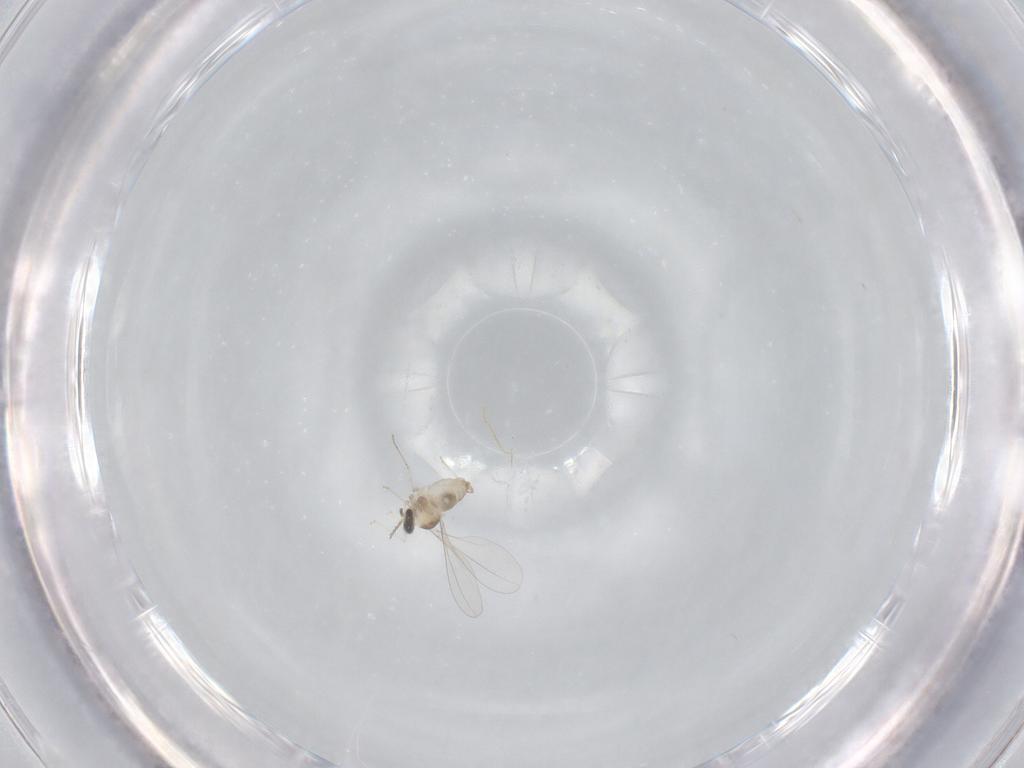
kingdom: Animalia
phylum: Arthropoda
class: Insecta
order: Diptera
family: Cecidomyiidae
